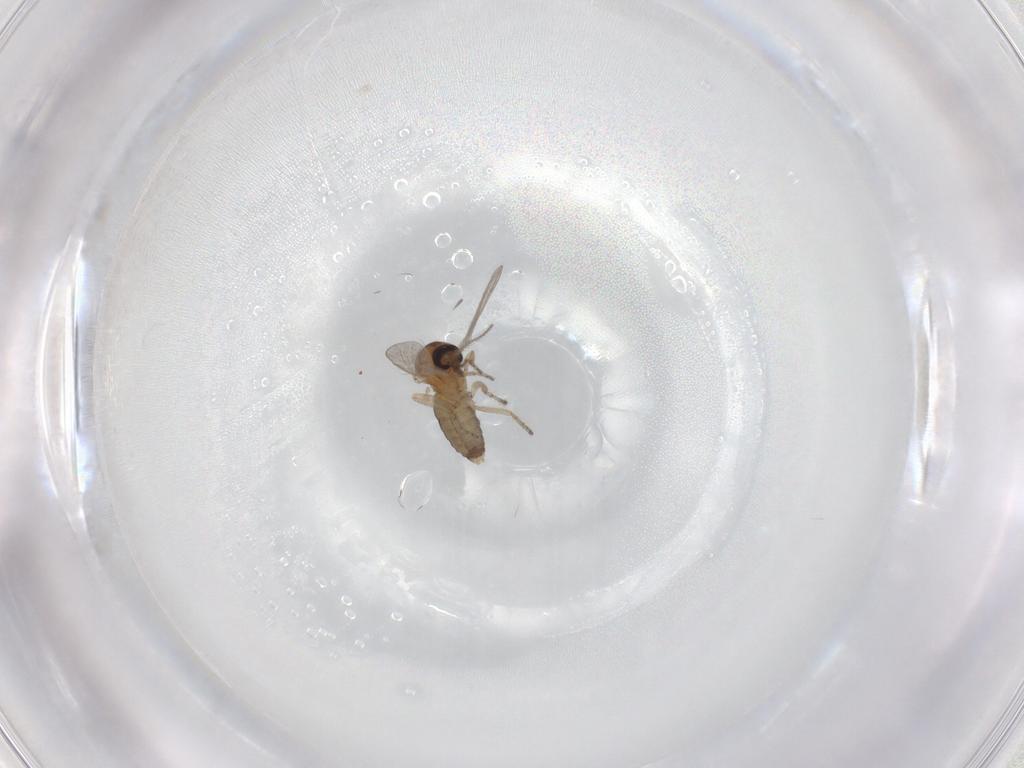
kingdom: Animalia
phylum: Arthropoda
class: Insecta
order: Diptera
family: Ceratopogonidae
